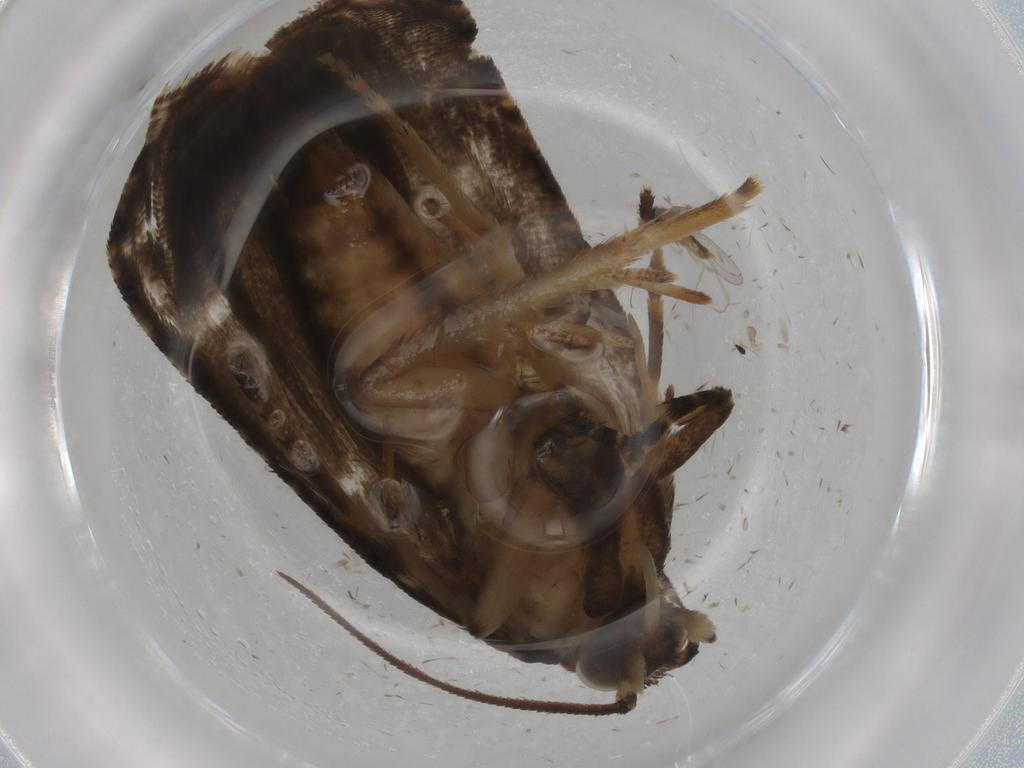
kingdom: Animalia
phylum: Arthropoda
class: Insecta
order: Lepidoptera
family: Tortricidae
